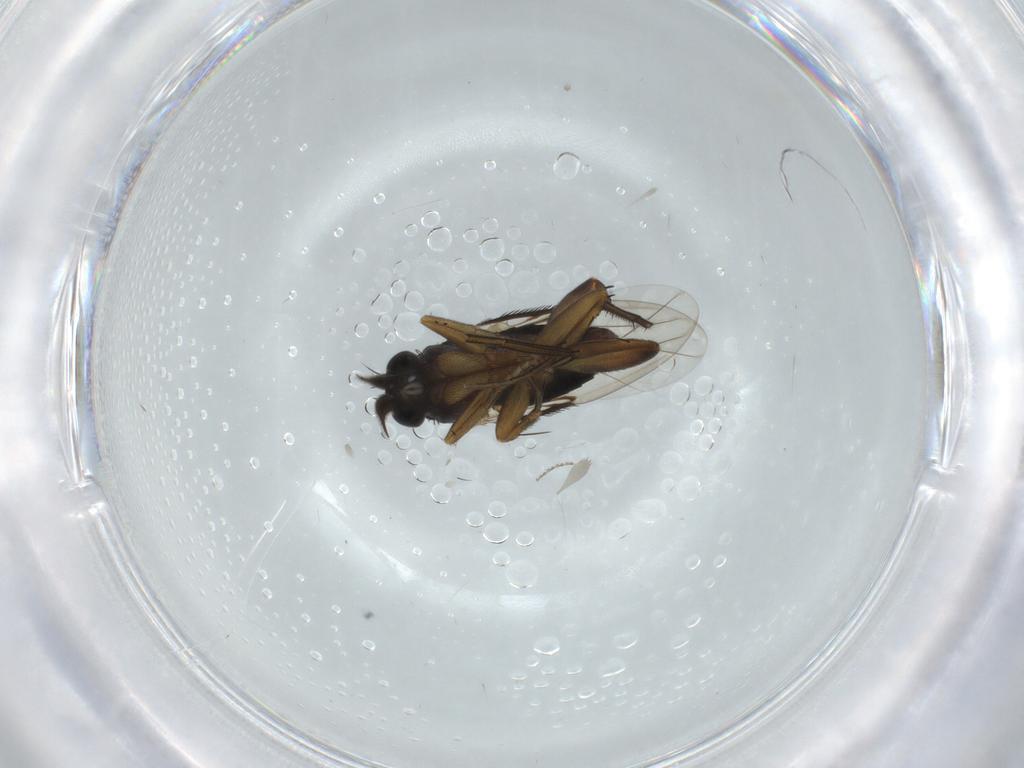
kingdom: Animalia
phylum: Arthropoda
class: Insecta
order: Diptera
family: Phoridae
